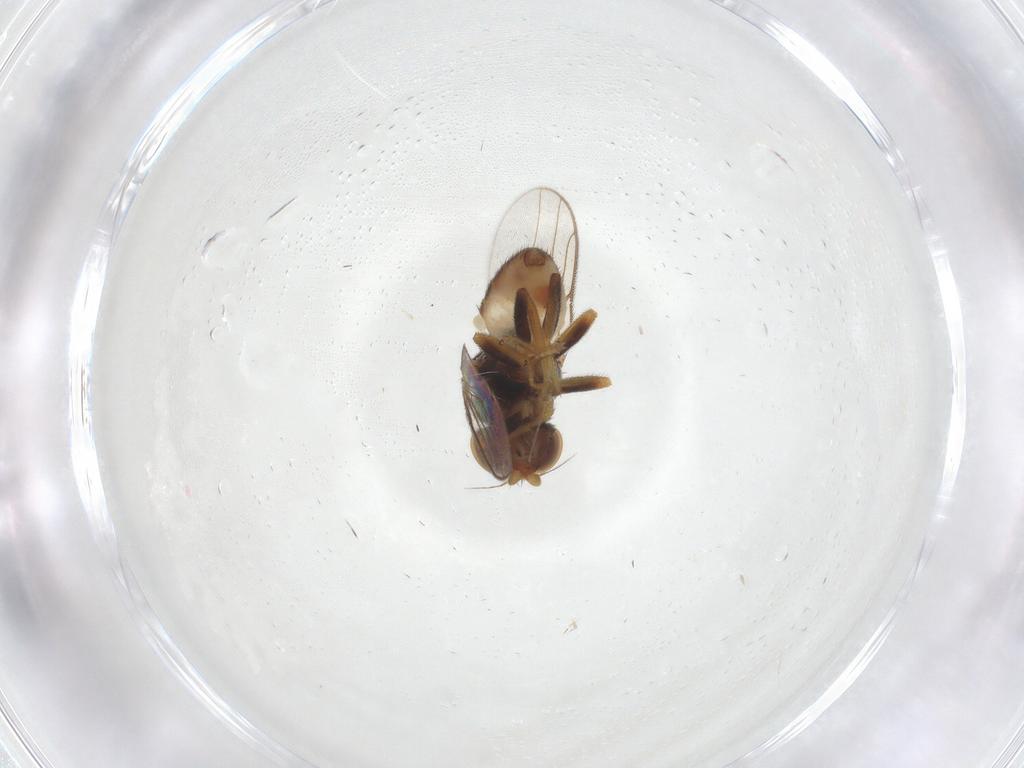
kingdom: Animalia
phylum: Arthropoda
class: Insecta
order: Diptera
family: Chloropidae
